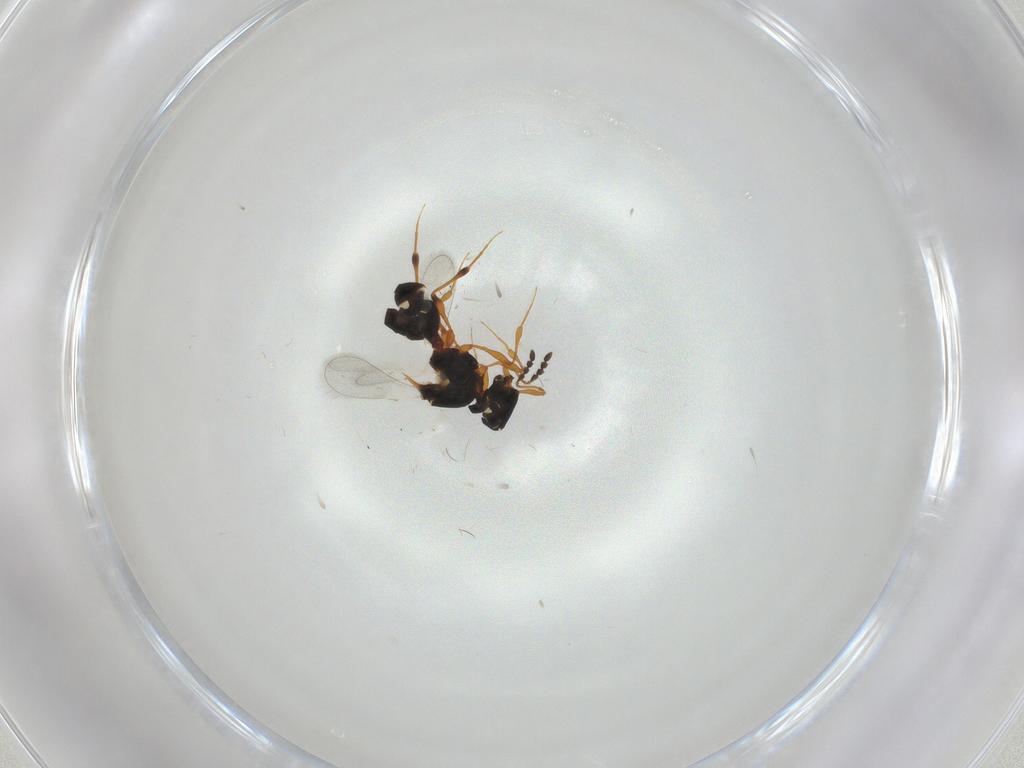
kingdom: Animalia
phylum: Arthropoda
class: Insecta
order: Hymenoptera
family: Platygastridae
